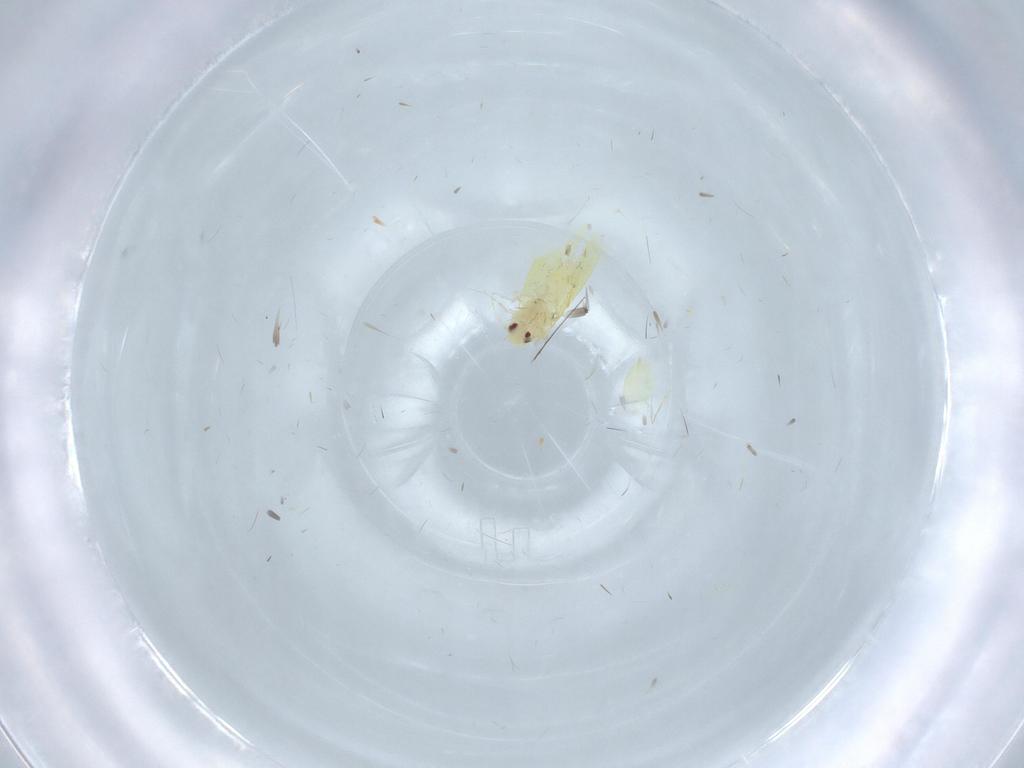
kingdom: Animalia
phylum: Arthropoda
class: Insecta
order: Hemiptera
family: Aleyrodidae
